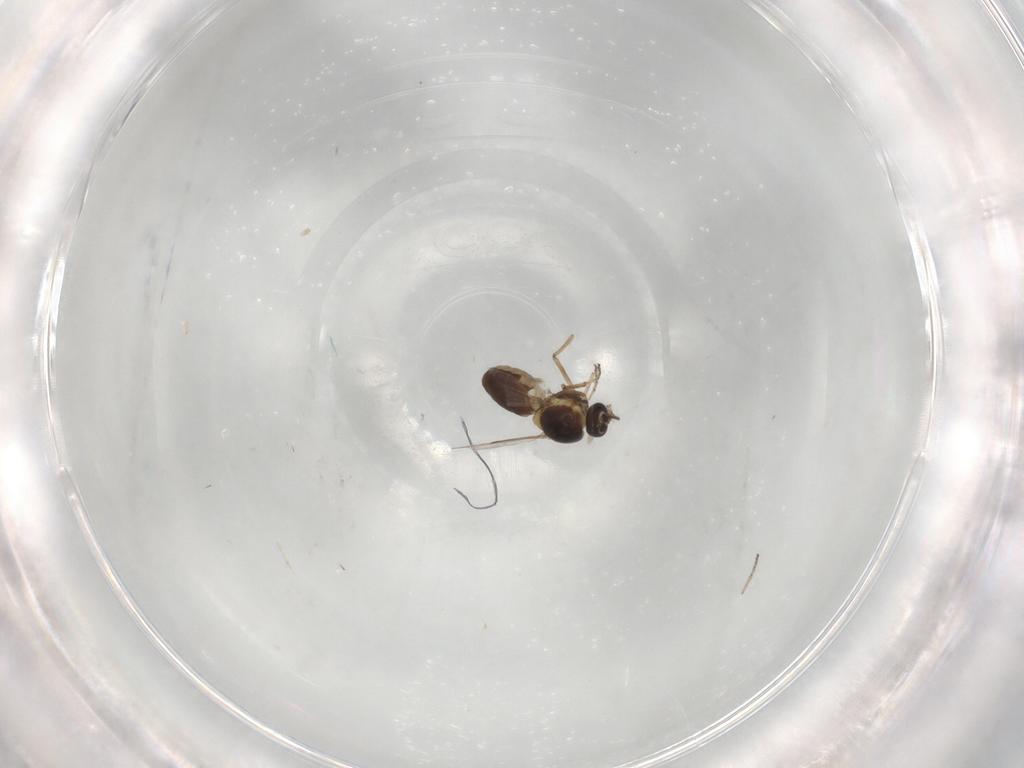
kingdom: Animalia
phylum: Arthropoda
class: Insecta
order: Diptera
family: Ceratopogonidae
